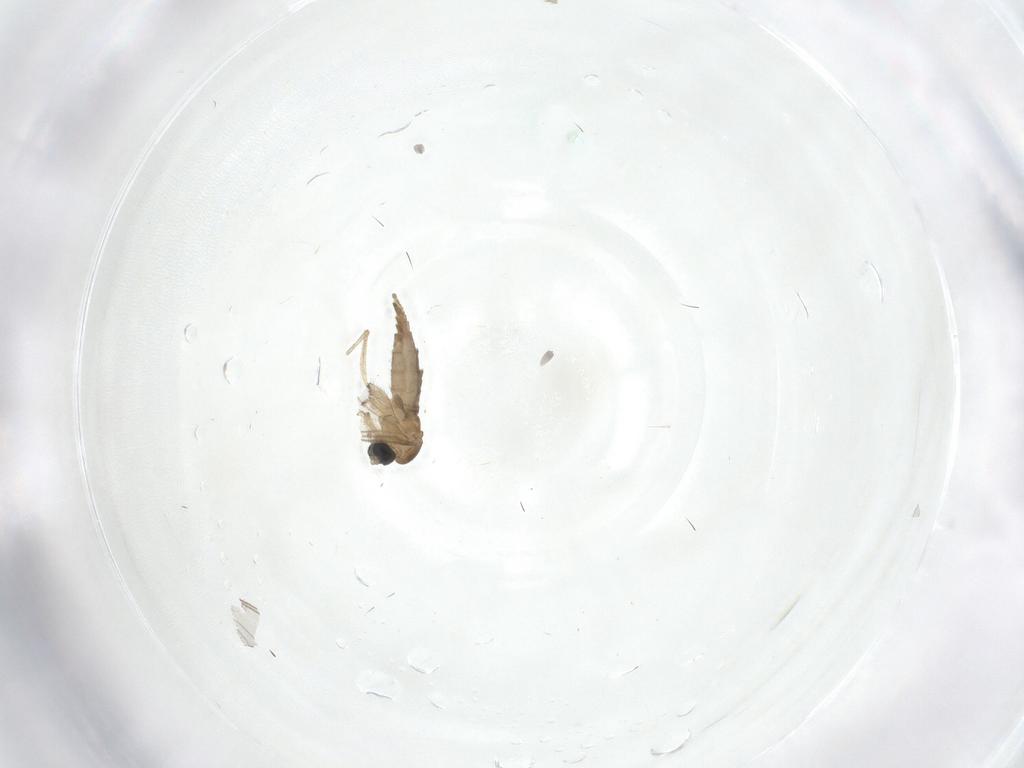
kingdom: Animalia
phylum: Arthropoda
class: Insecta
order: Diptera
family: Sciaridae
